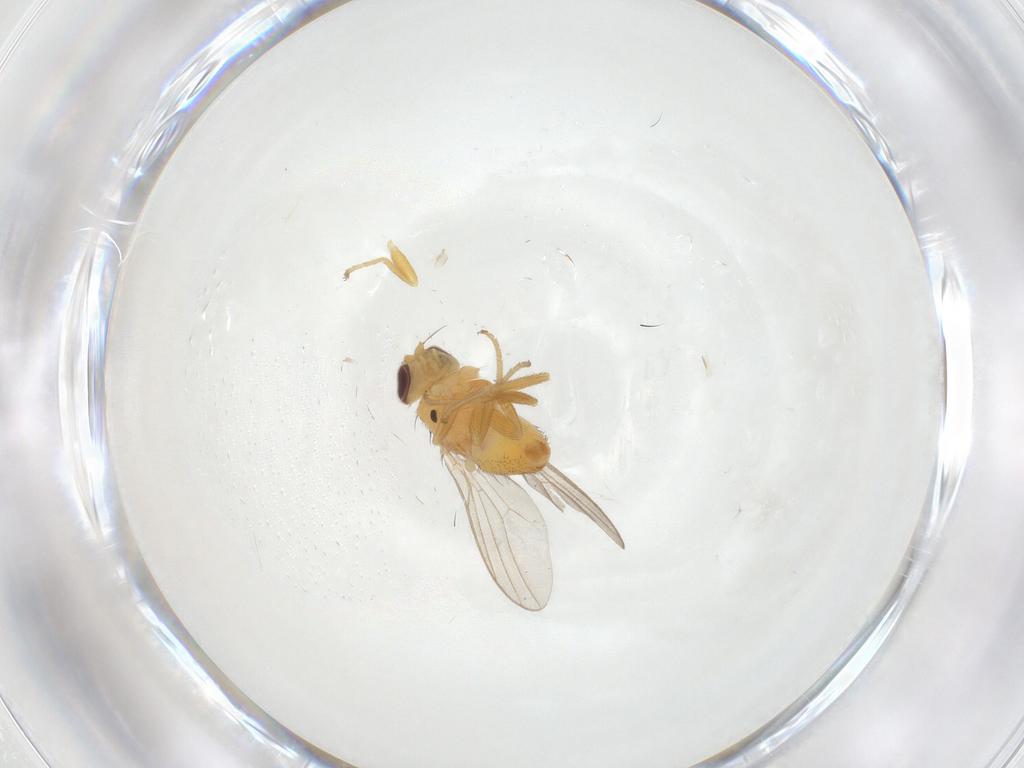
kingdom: Animalia
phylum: Arthropoda
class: Insecta
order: Diptera
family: Chloropidae
